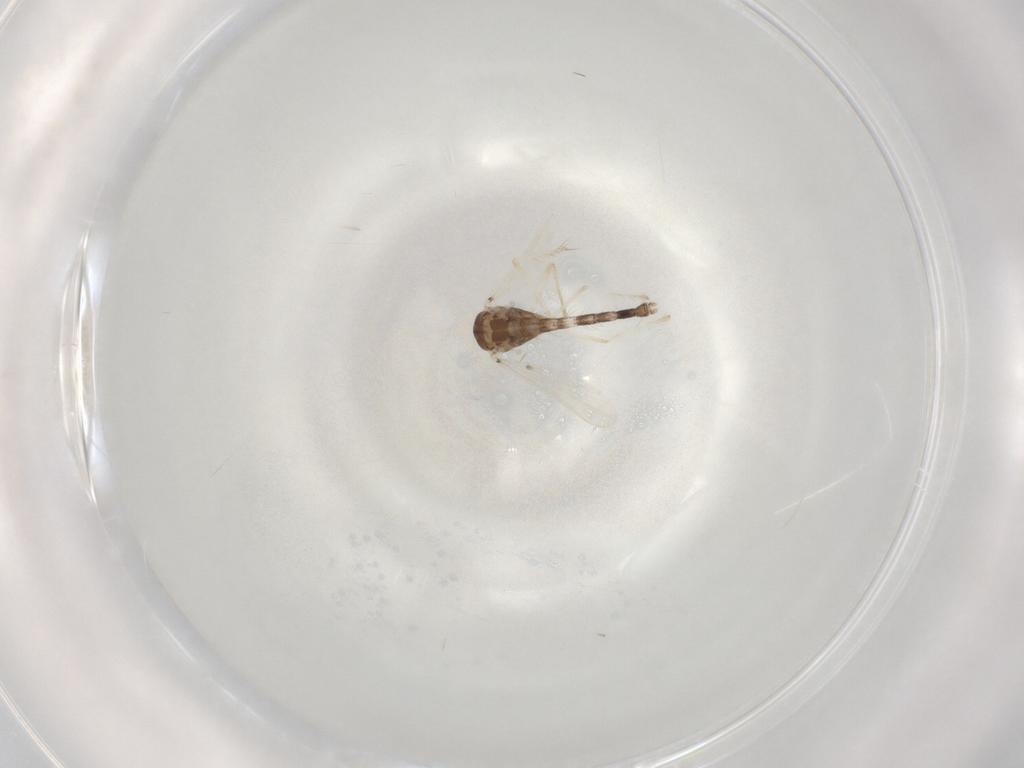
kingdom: Animalia
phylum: Arthropoda
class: Insecta
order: Diptera
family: Chironomidae
